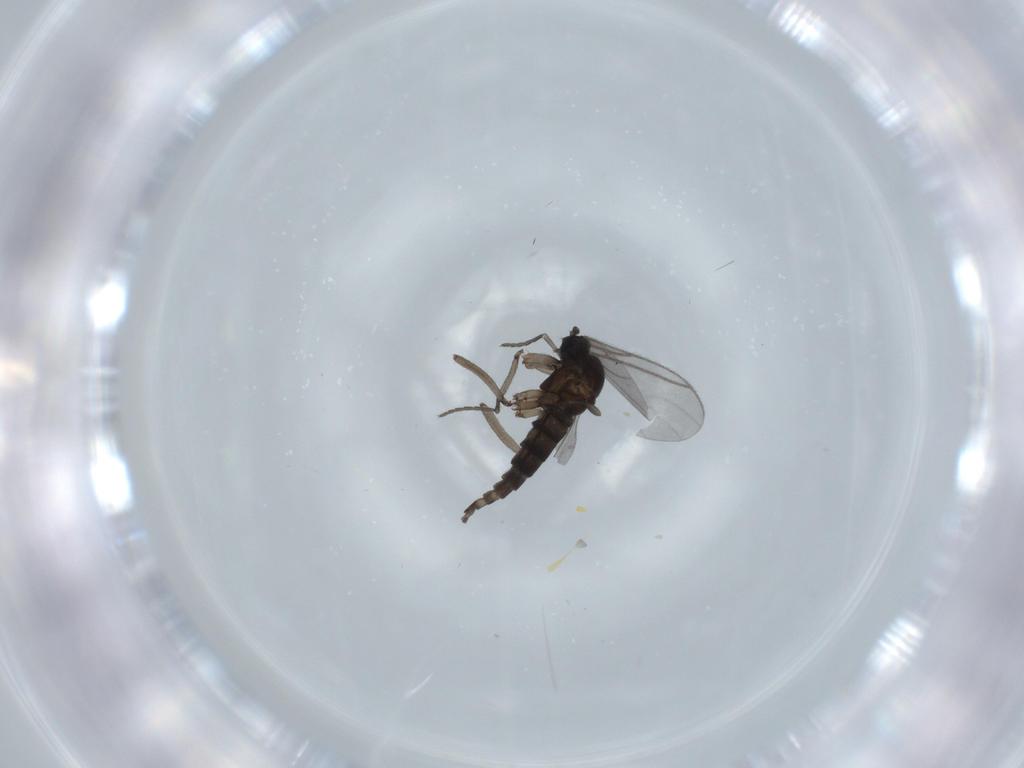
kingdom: Animalia
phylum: Arthropoda
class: Insecta
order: Diptera
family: Sciaridae
